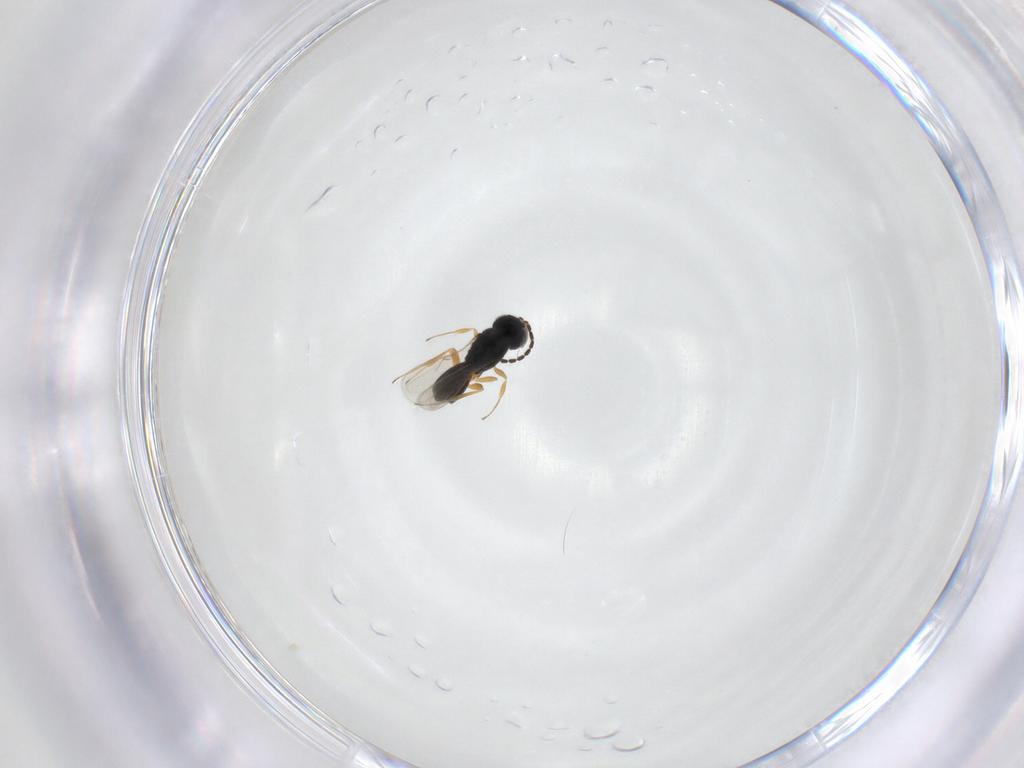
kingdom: Animalia
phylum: Arthropoda
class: Insecta
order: Hymenoptera
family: Scelionidae
